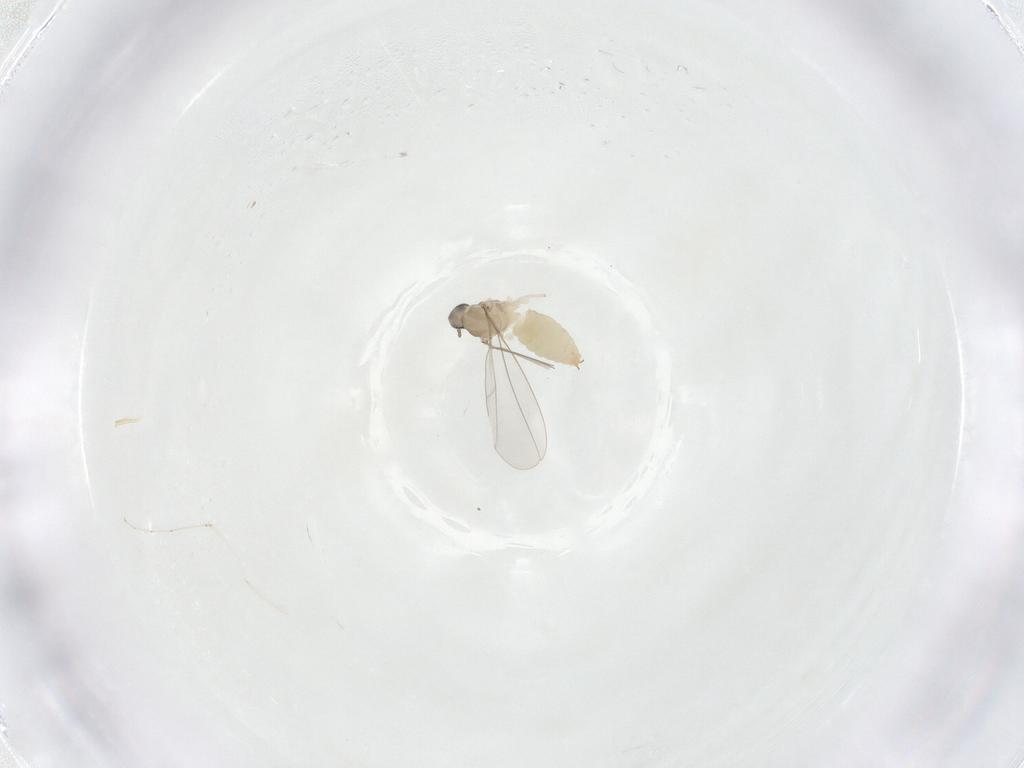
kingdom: Animalia
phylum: Arthropoda
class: Insecta
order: Diptera
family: Cecidomyiidae
